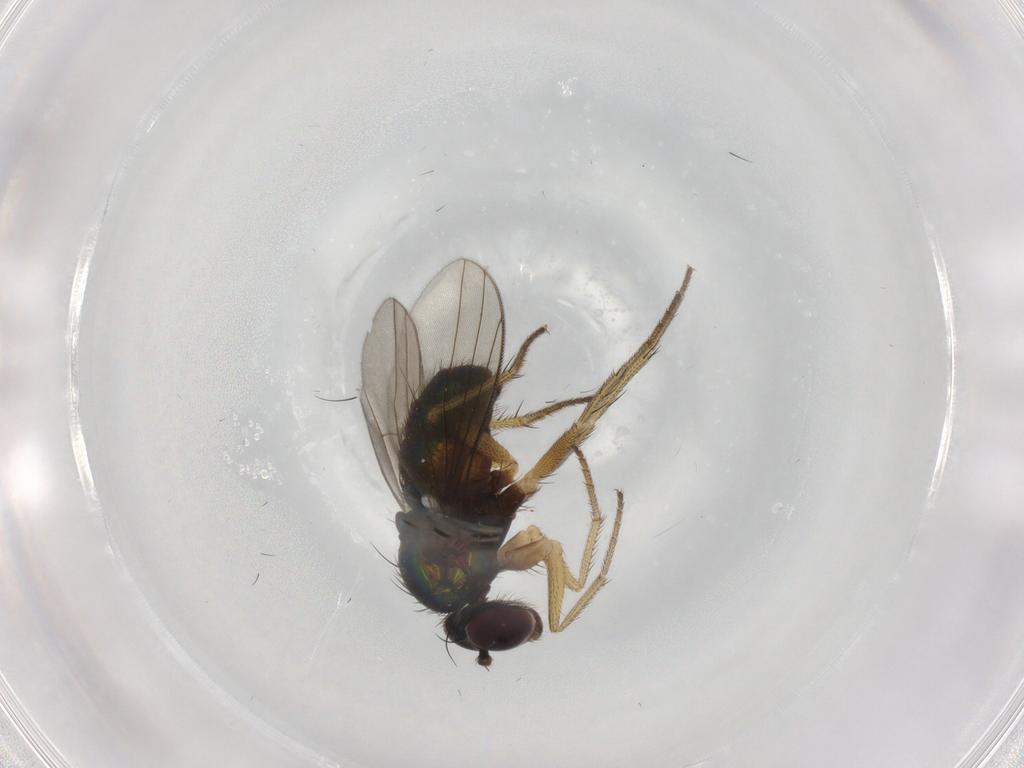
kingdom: Animalia
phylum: Arthropoda
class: Insecta
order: Diptera
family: Dolichopodidae
